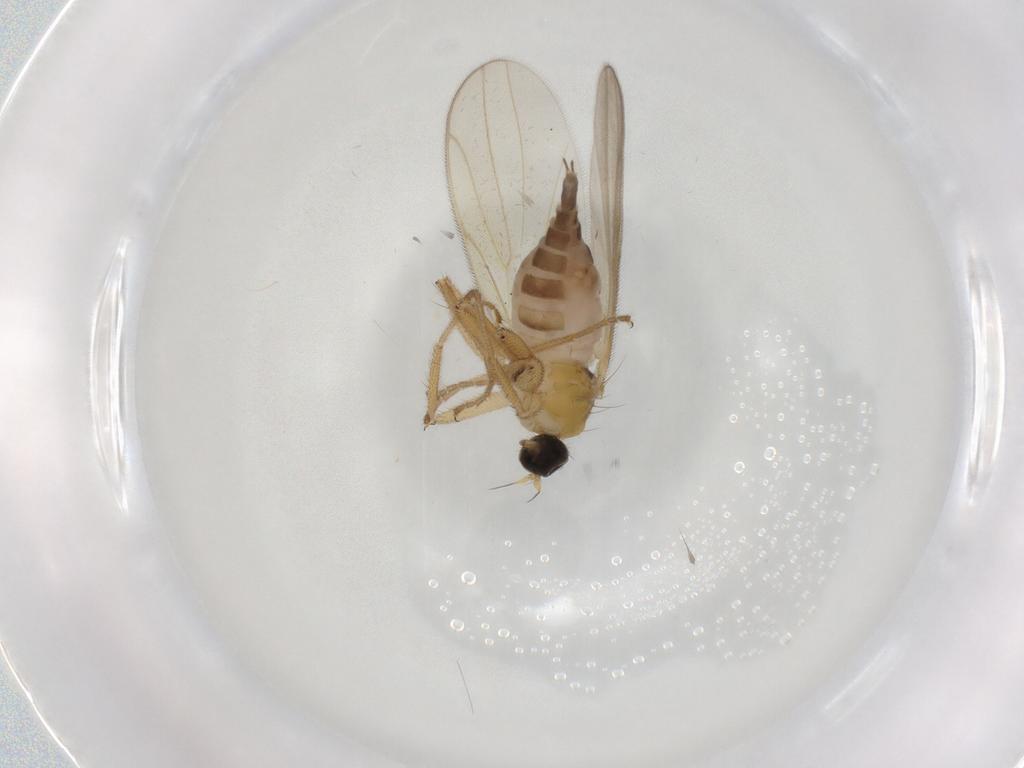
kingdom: Animalia
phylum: Arthropoda
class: Insecta
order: Diptera
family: Hybotidae
